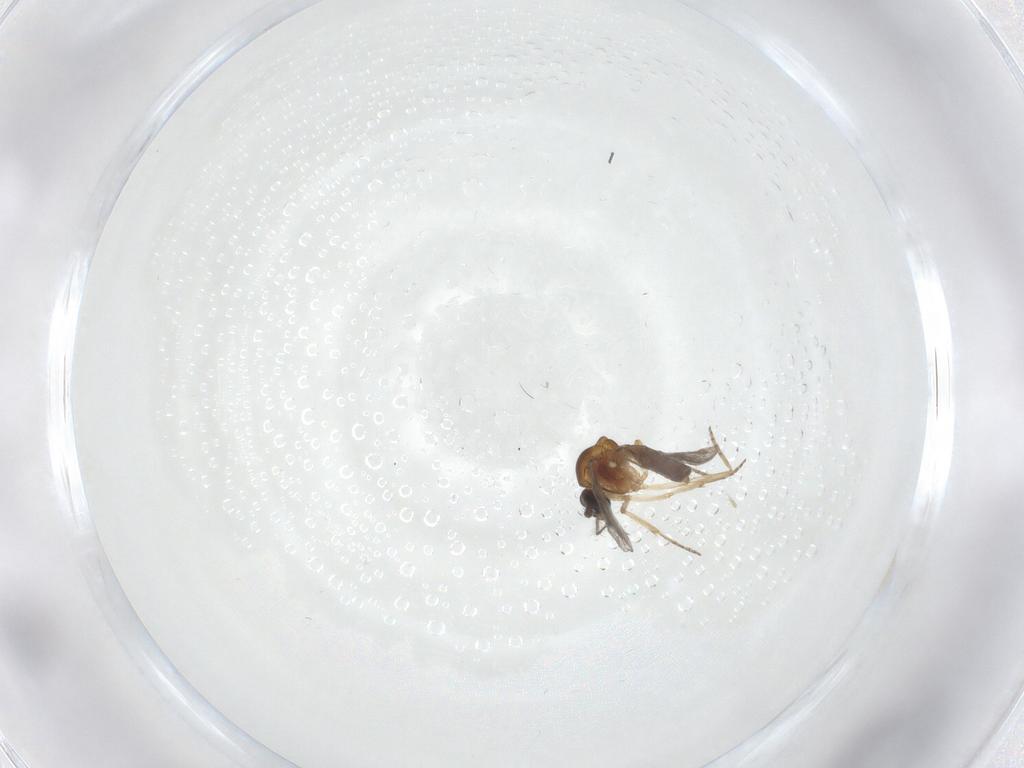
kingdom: Animalia
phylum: Arthropoda
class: Insecta
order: Diptera
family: Ceratopogonidae
